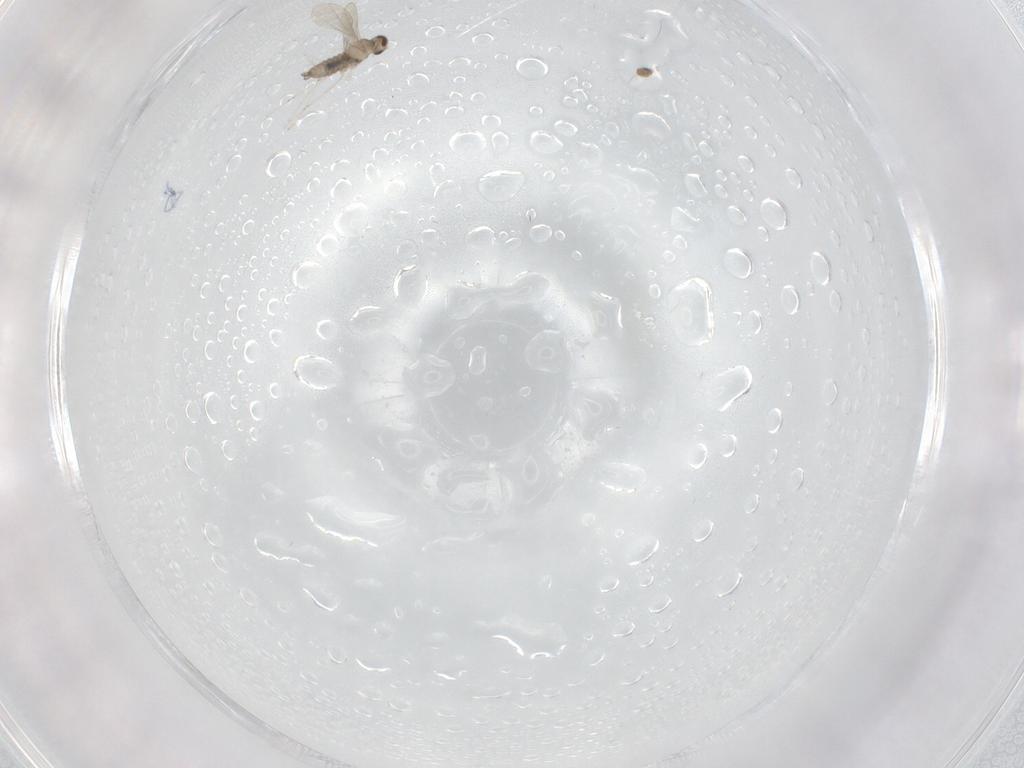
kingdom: Animalia
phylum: Arthropoda
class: Insecta
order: Diptera
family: Cecidomyiidae
